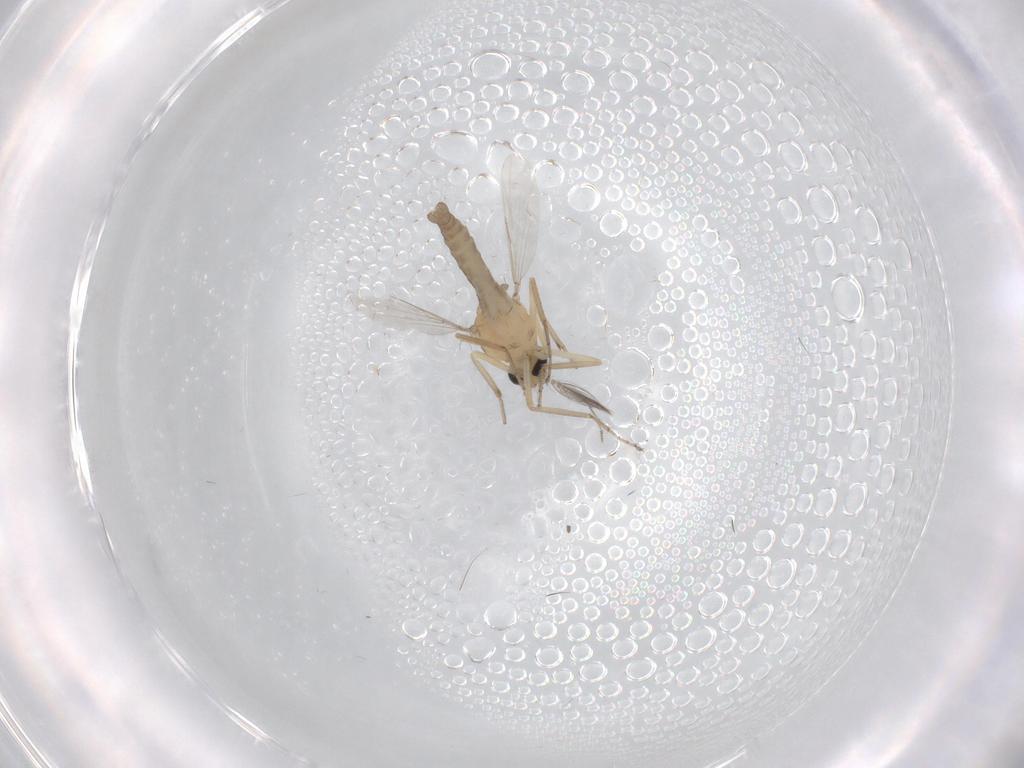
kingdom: Animalia
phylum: Arthropoda
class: Insecta
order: Diptera
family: Ceratopogonidae
